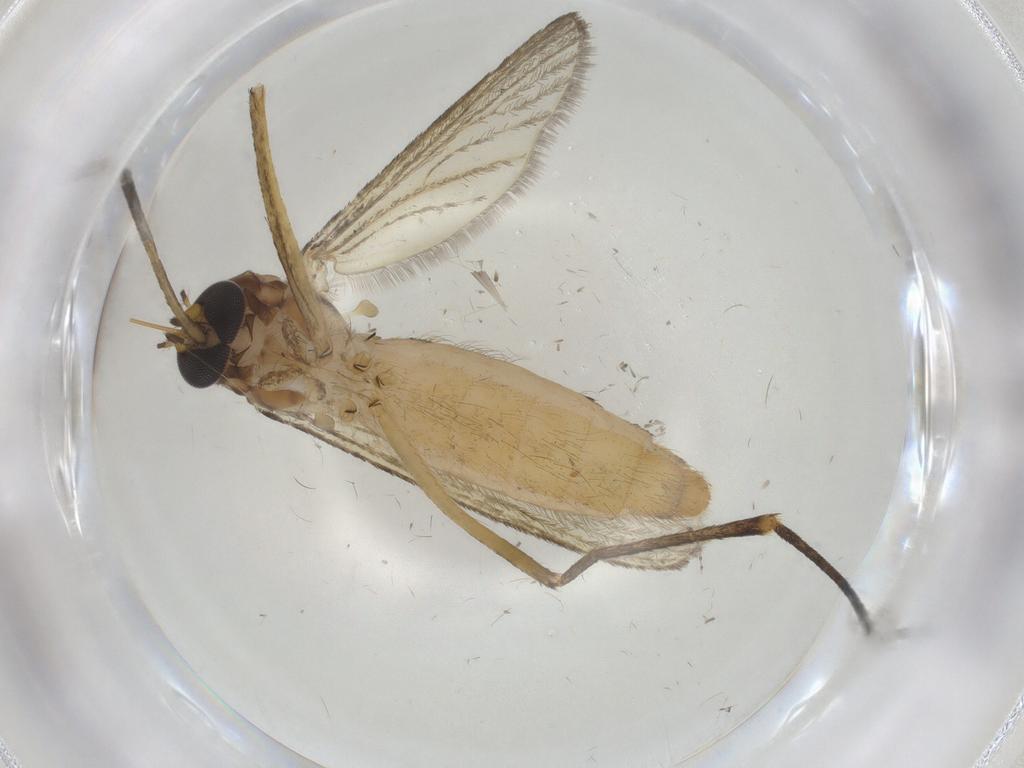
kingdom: Animalia
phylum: Arthropoda
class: Insecta
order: Diptera
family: Culicidae
